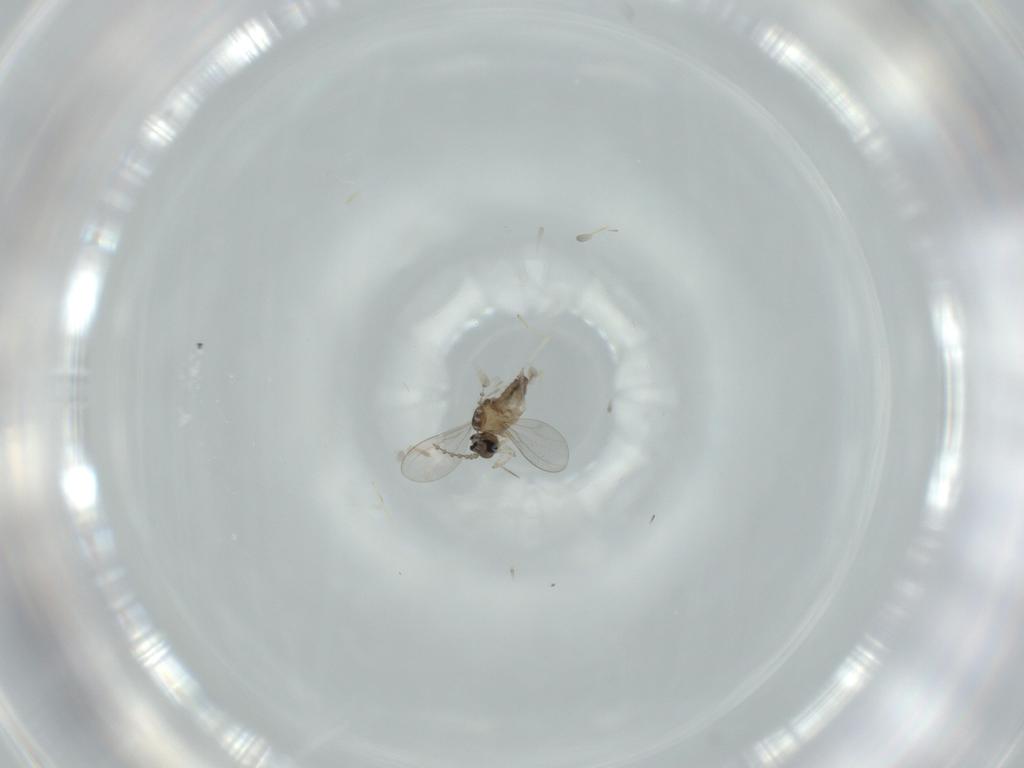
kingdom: Animalia
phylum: Arthropoda
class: Insecta
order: Diptera
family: Cecidomyiidae
